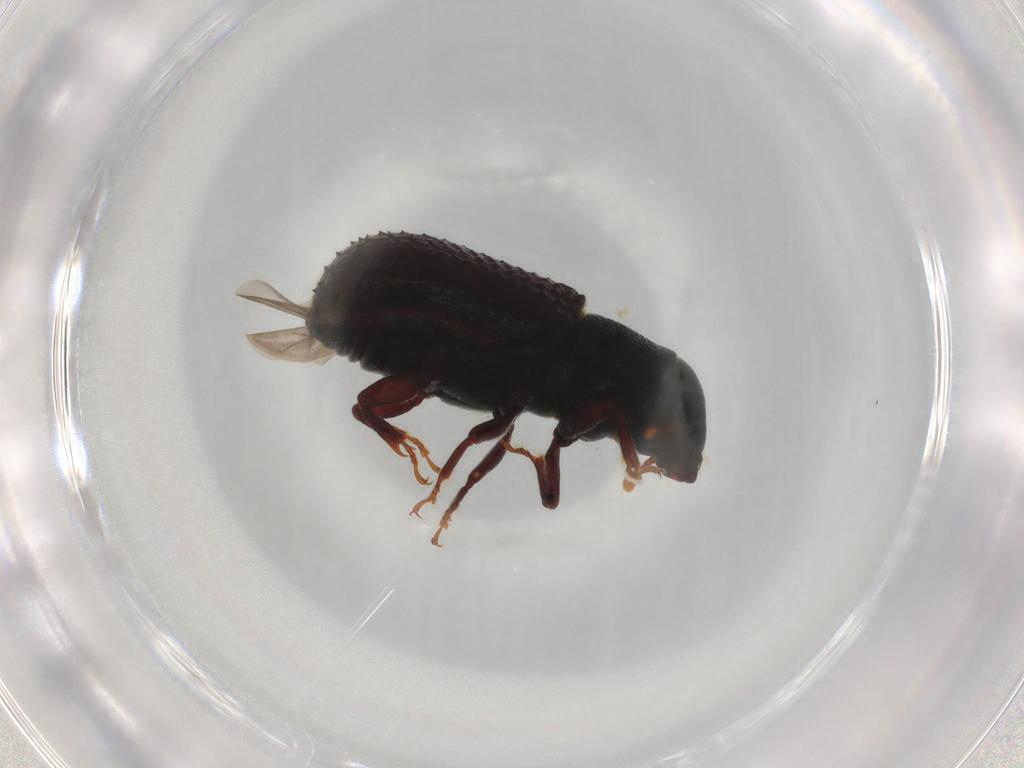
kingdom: Animalia
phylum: Arthropoda
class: Insecta
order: Coleoptera
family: Curculionidae
